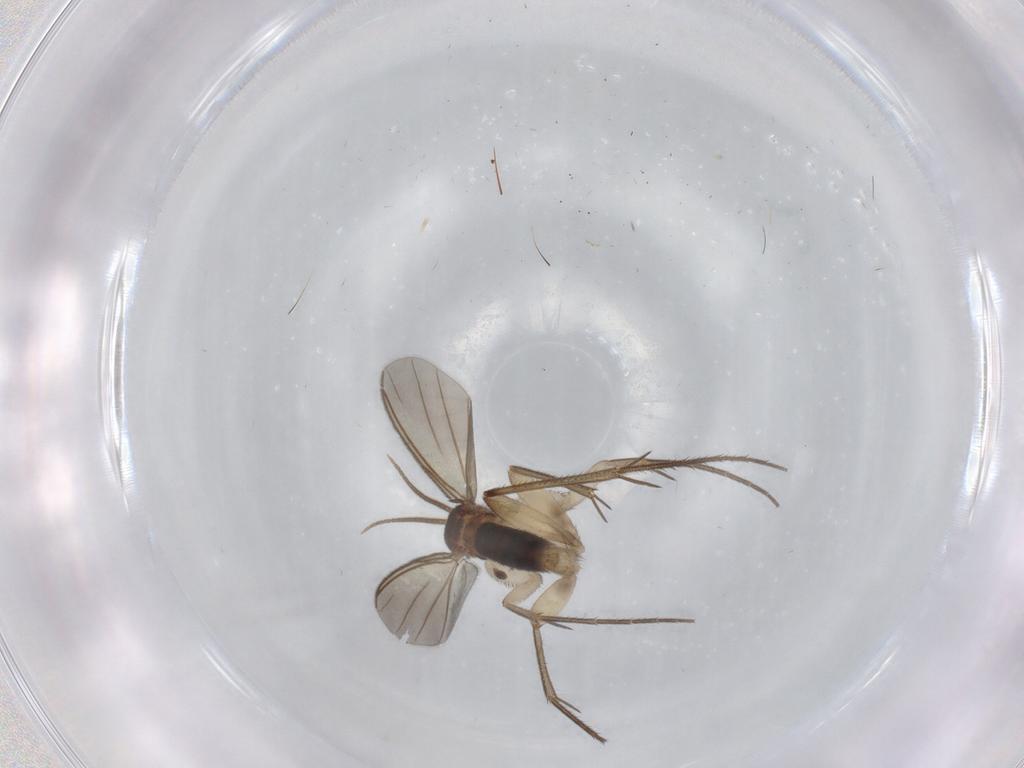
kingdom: Animalia
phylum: Arthropoda
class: Insecta
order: Diptera
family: Mycetophilidae
